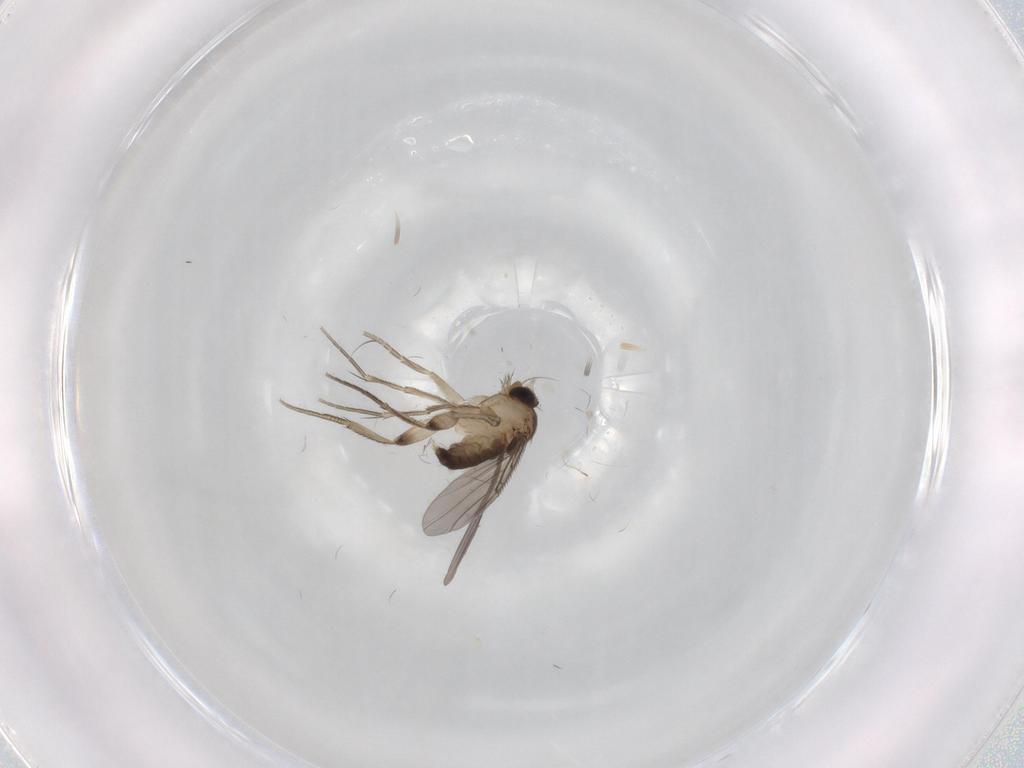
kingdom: Animalia
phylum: Arthropoda
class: Insecta
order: Diptera
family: Phoridae
